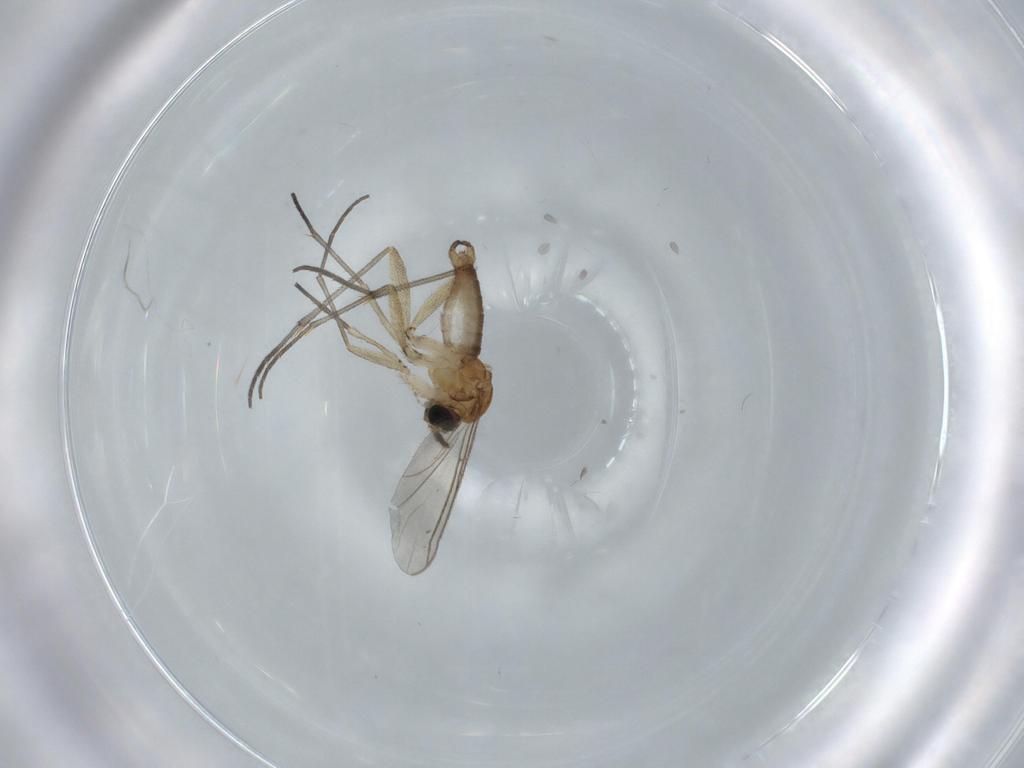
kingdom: Animalia
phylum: Arthropoda
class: Insecta
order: Diptera
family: Sciaridae
